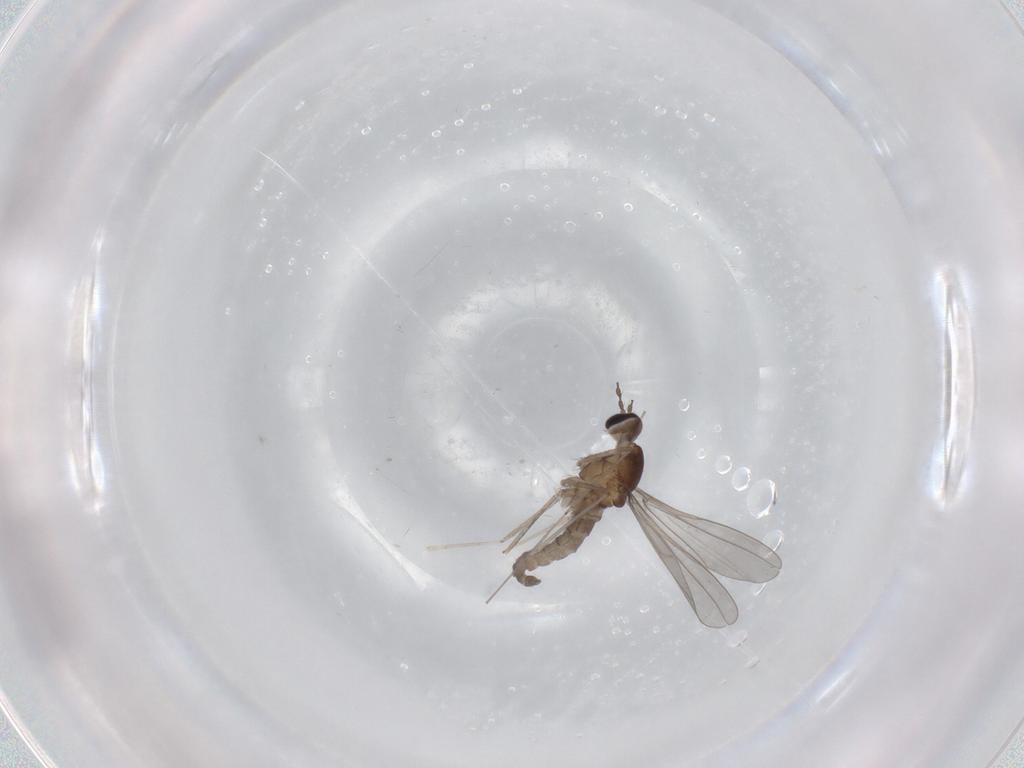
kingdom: Animalia
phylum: Arthropoda
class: Insecta
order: Diptera
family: Cecidomyiidae
